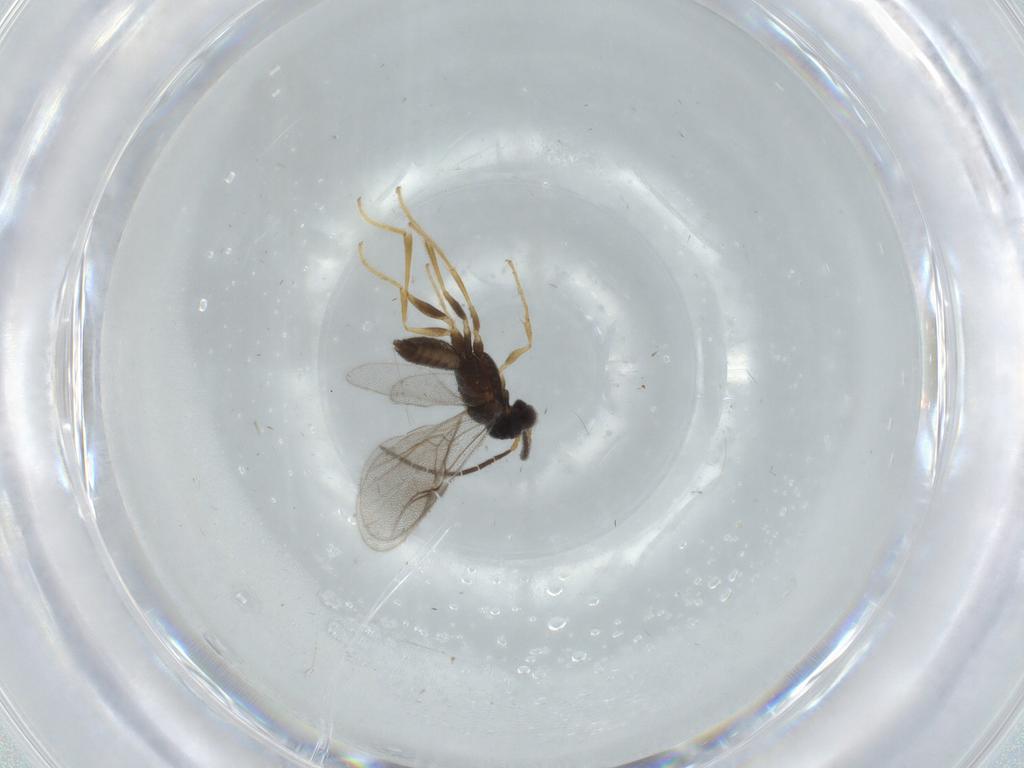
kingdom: Animalia
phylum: Arthropoda
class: Insecta
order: Hymenoptera
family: Dryinidae
